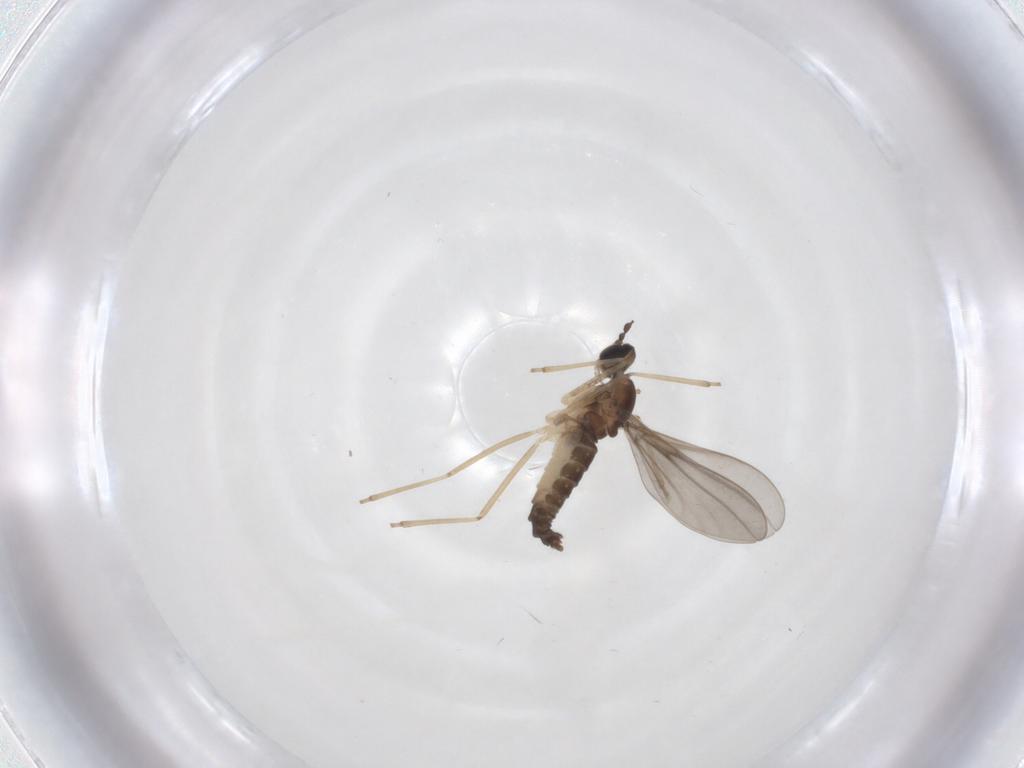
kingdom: Animalia
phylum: Arthropoda
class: Insecta
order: Diptera
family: Cecidomyiidae
